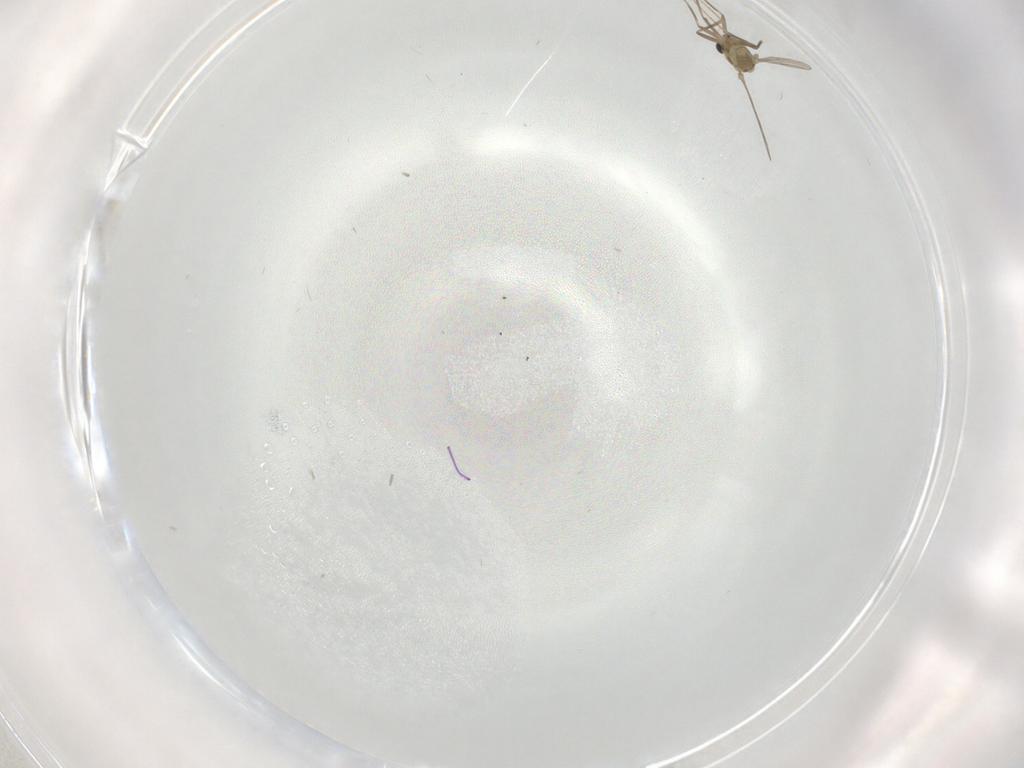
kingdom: Animalia
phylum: Arthropoda
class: Insecta
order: Diptera
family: Chironomidae
